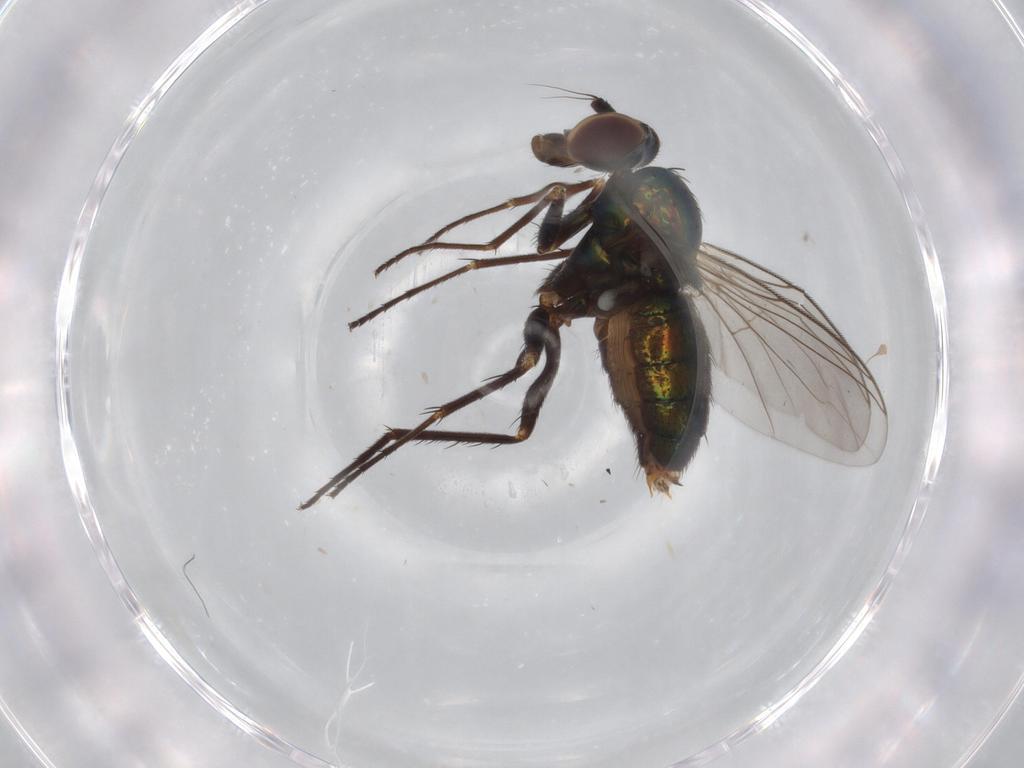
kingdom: Animalia
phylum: Arthropoda
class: Insecta
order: Diptera
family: Dolichopodidae
